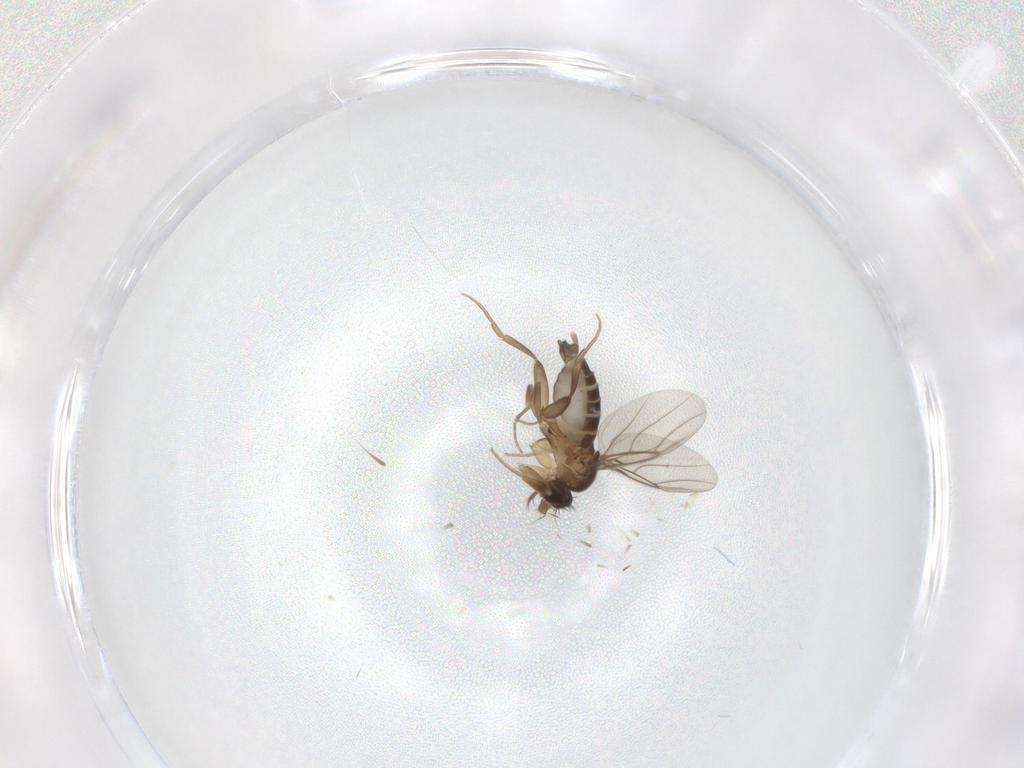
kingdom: Animalia
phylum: Arthropoda
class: Insecta
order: Diptera
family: Phoridae
